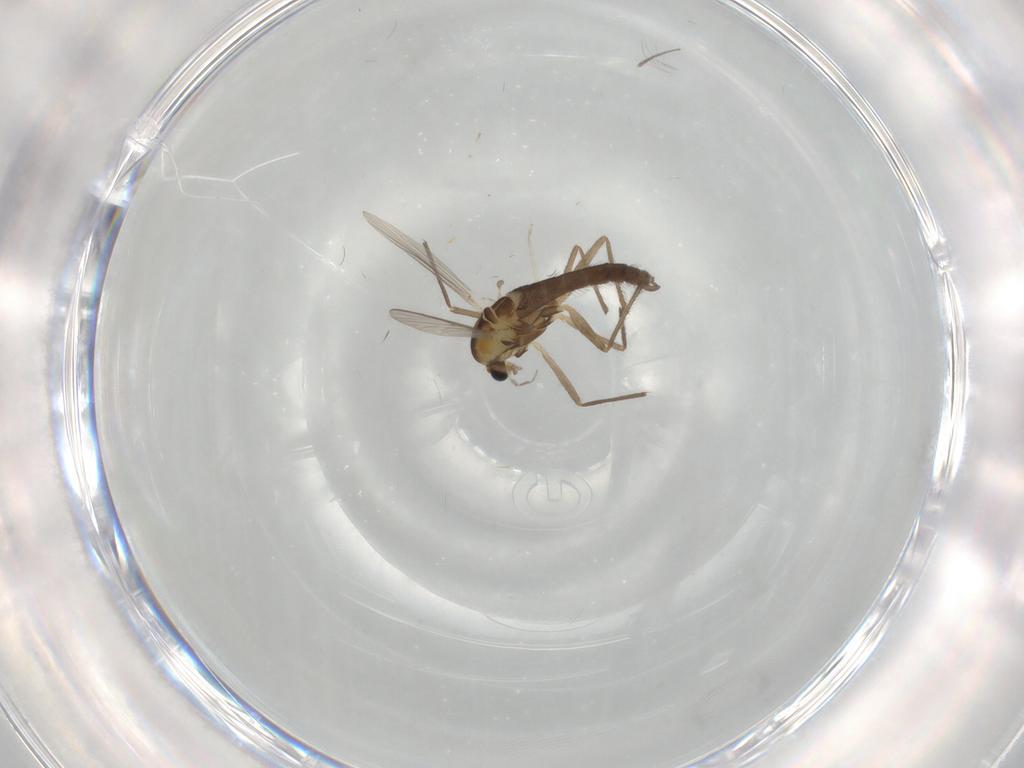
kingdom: Animalia
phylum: Arthropoda
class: Insecta
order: Diptera
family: Chironomidae
